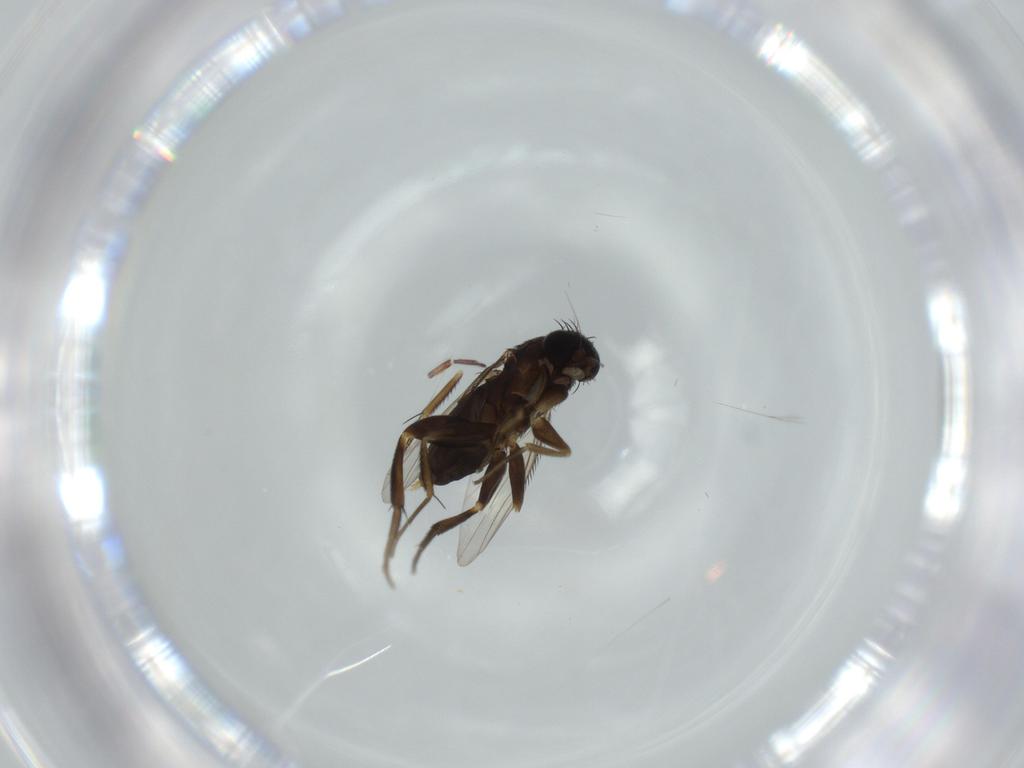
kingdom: Animalia
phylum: Arthropoda
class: Insecta
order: Diptera
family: Phoridae
